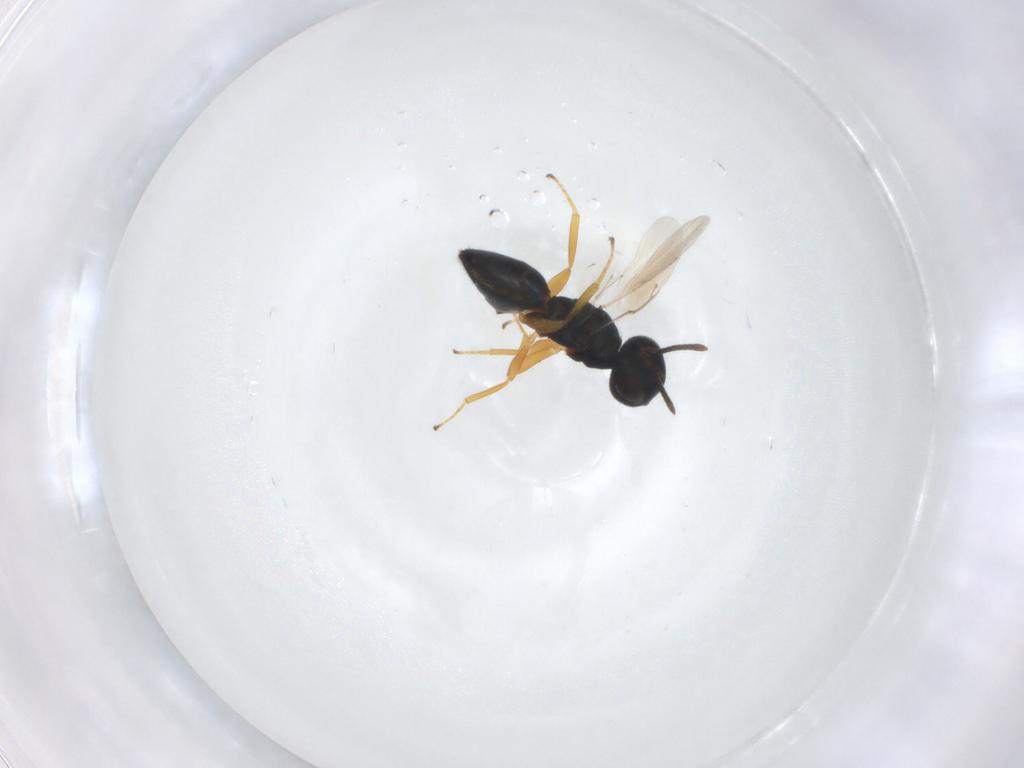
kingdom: Animalia
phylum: Arthropoda
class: Insecta
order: Hymenoptera
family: Pteromalidae
